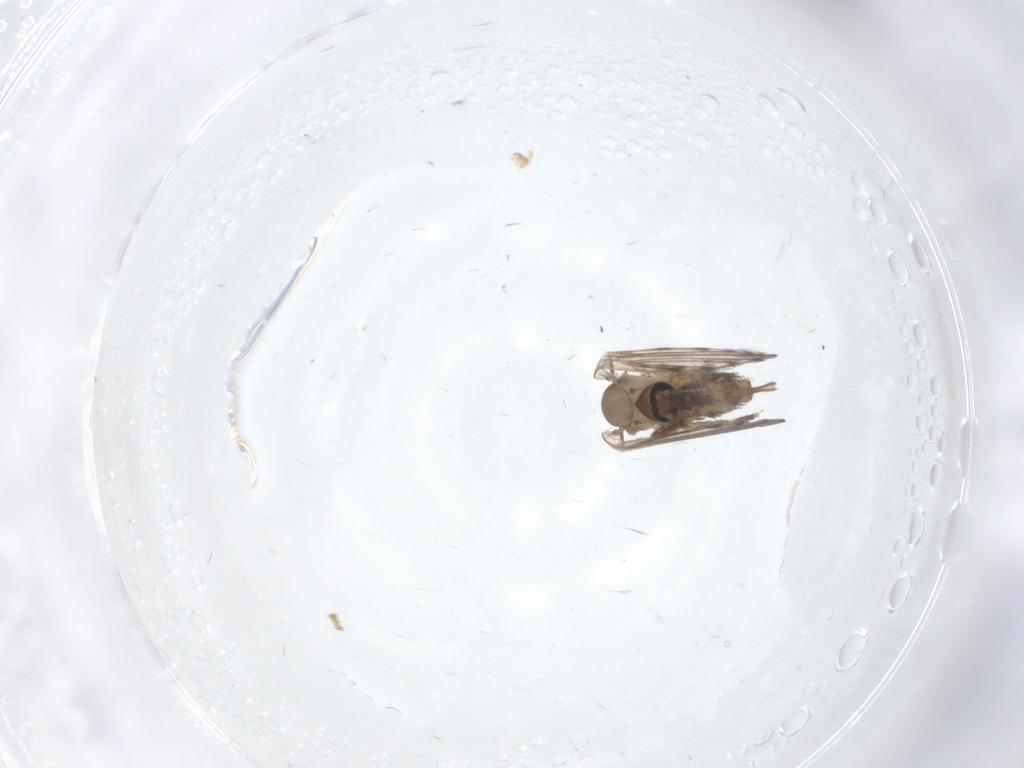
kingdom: Animalia
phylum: Arthropoda
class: Insecta
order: Diptera
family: Psychodidae
